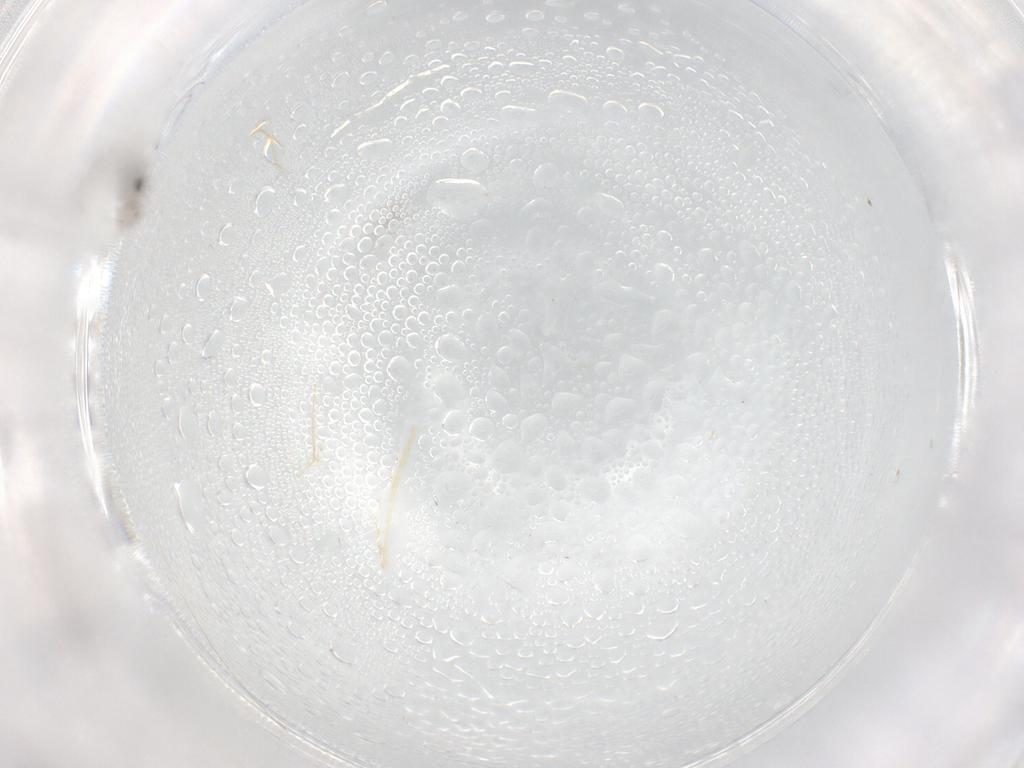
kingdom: Animalia
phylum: Arthropoda
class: Insecta
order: Diptera
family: Cecidomyiidae
